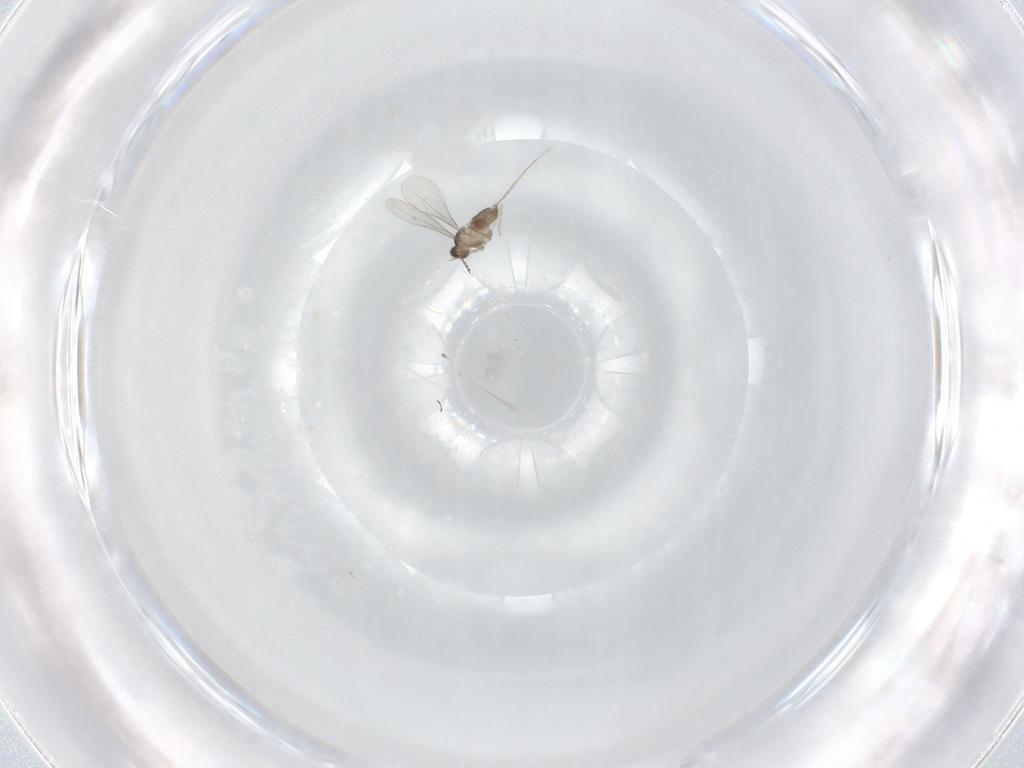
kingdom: Animalia
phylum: Arthropoda
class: Insecta
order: Diptera
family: Cecidomyiidae
